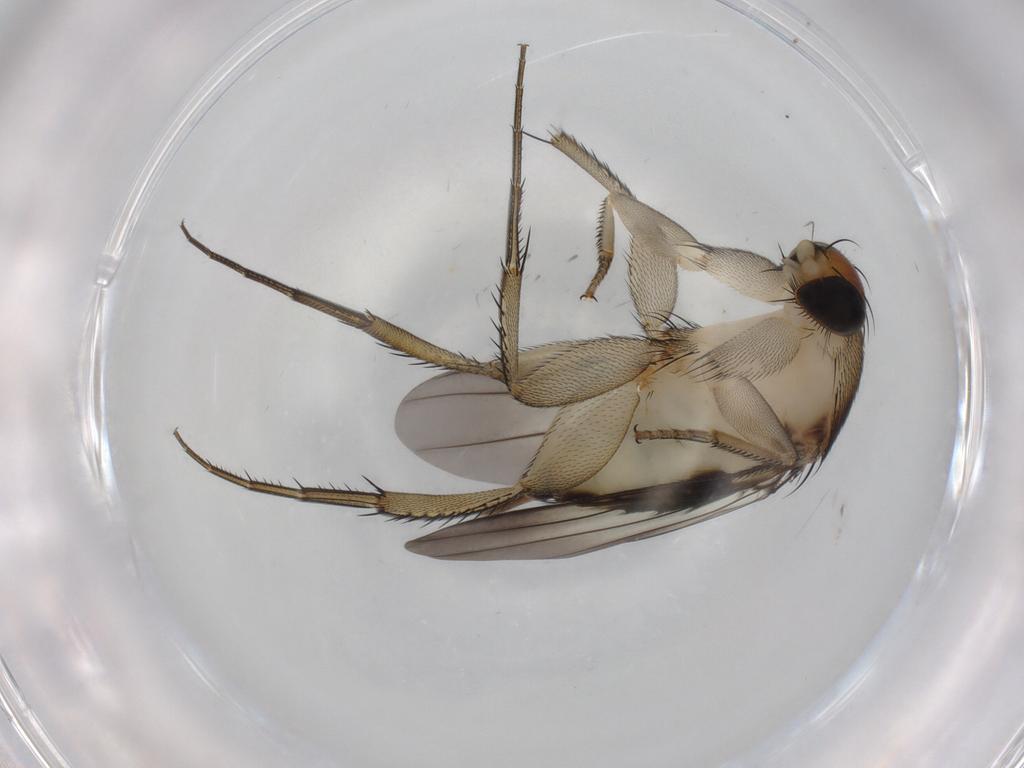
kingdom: Animalia
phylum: Arthropoda
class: Insecta
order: Diptera
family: Phoridae
